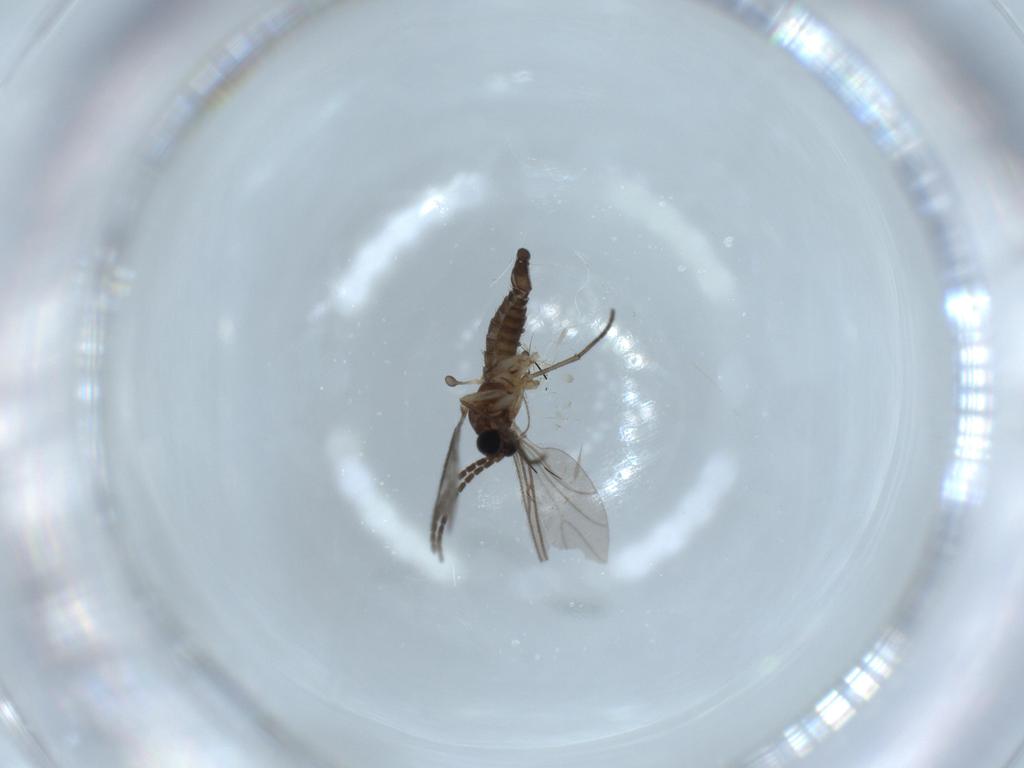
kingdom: Animalia
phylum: Arthropoda
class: Insecta
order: Diptera
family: Sciaridae
